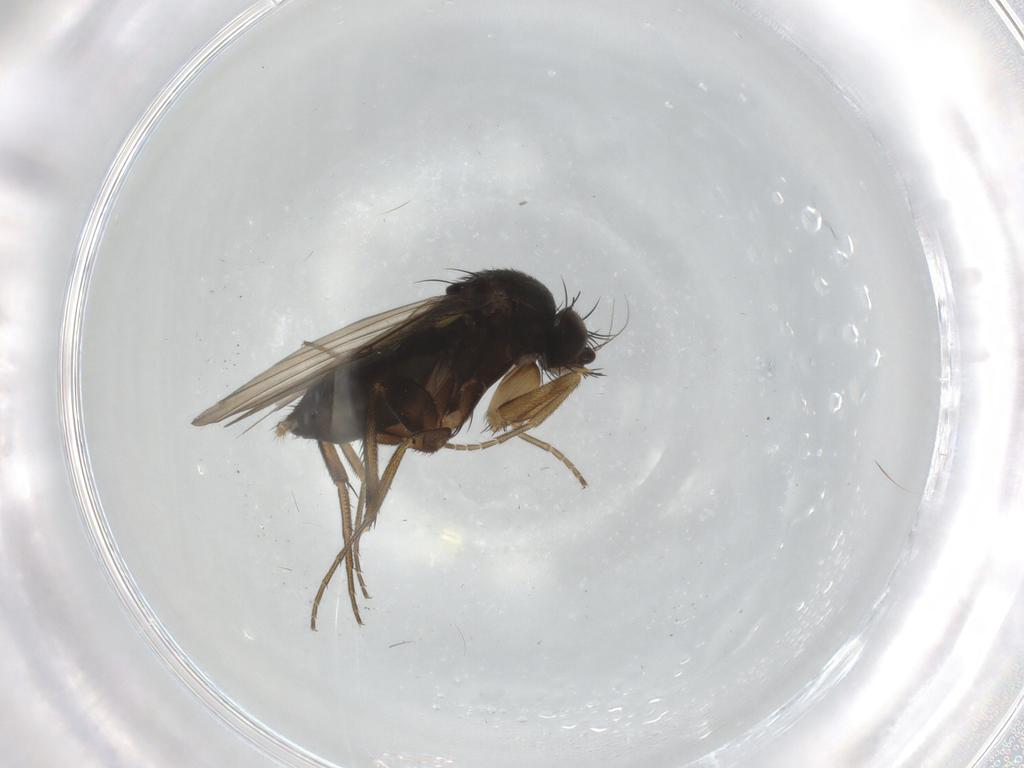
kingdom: Animalia
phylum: Arthropoda
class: Insecta
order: Diptera
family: Phoridae
